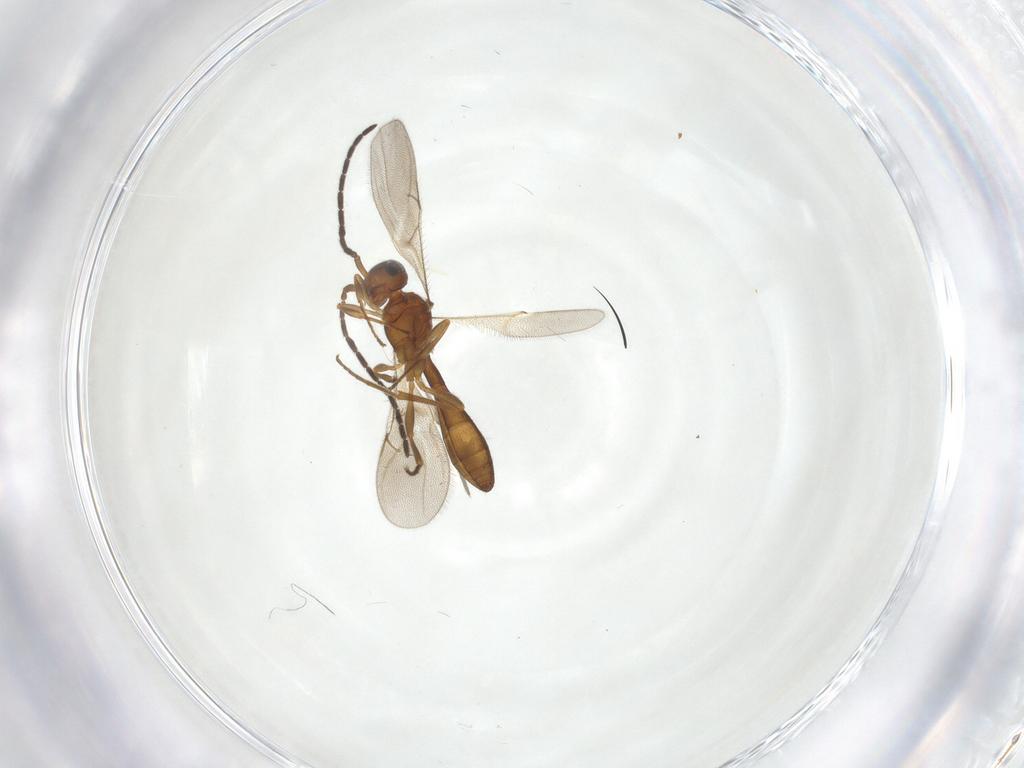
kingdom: Animalia
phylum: Arthropoda
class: Insecta
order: Hymenoptera
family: Scelionidae
